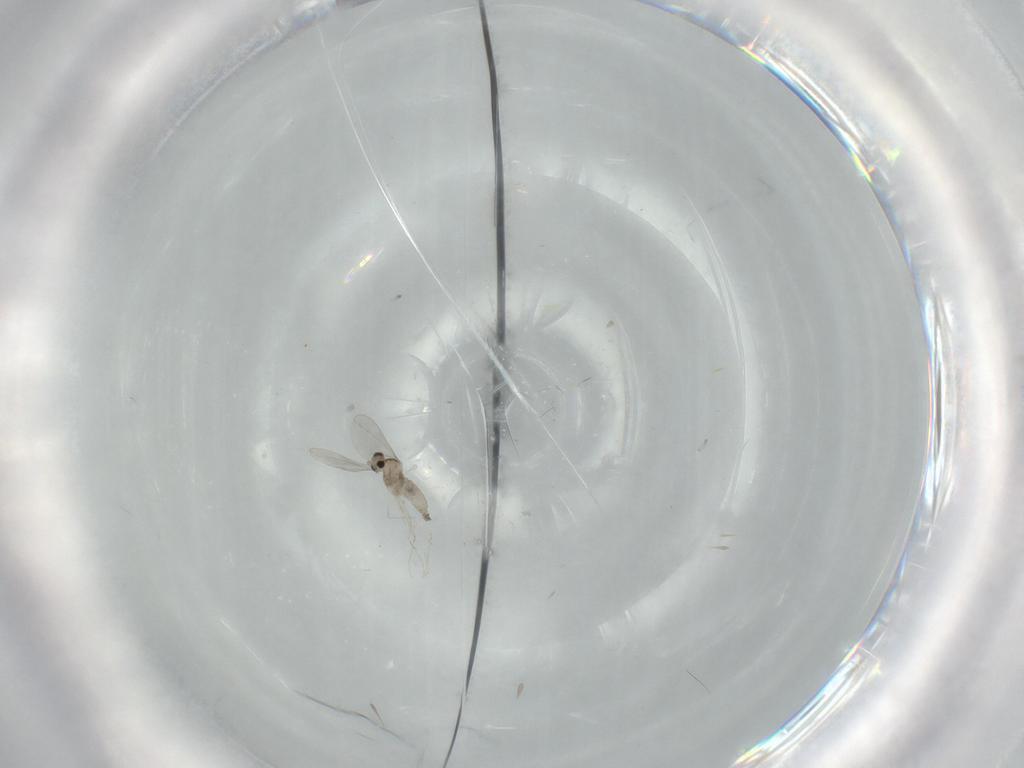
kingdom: Animalia
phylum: Arthropoda
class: Insecta
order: Diptera
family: Cecidomyiidae
